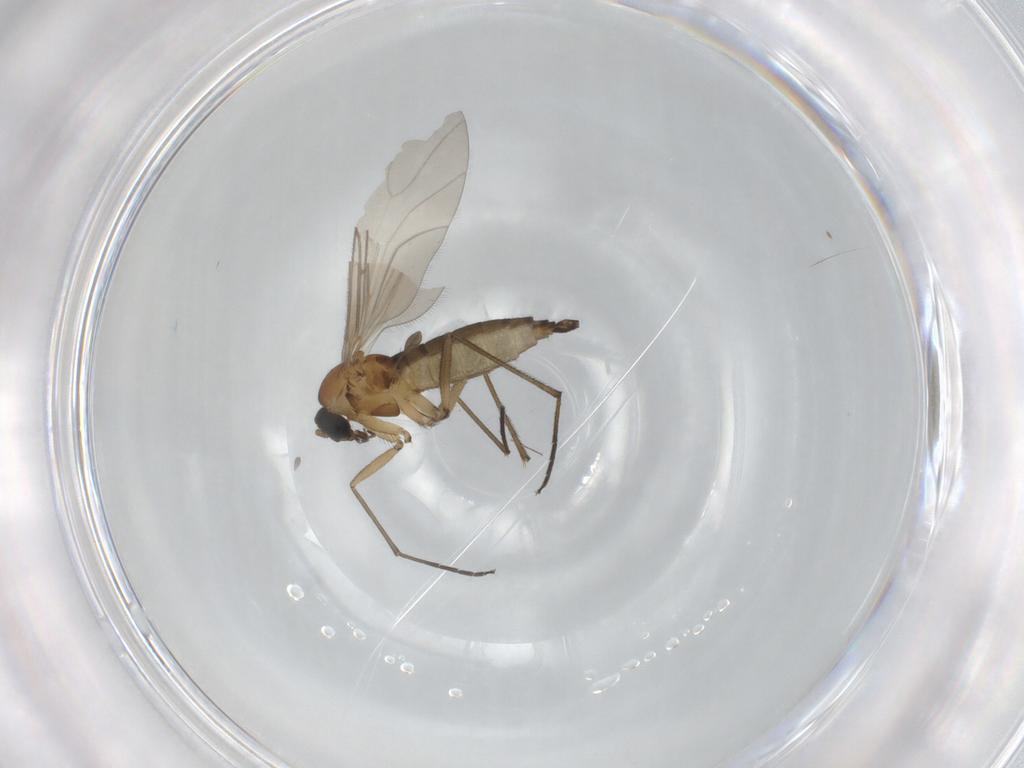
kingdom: Animalia
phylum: Arthropoda
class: Insecta
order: Diptera
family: Sciaridae
